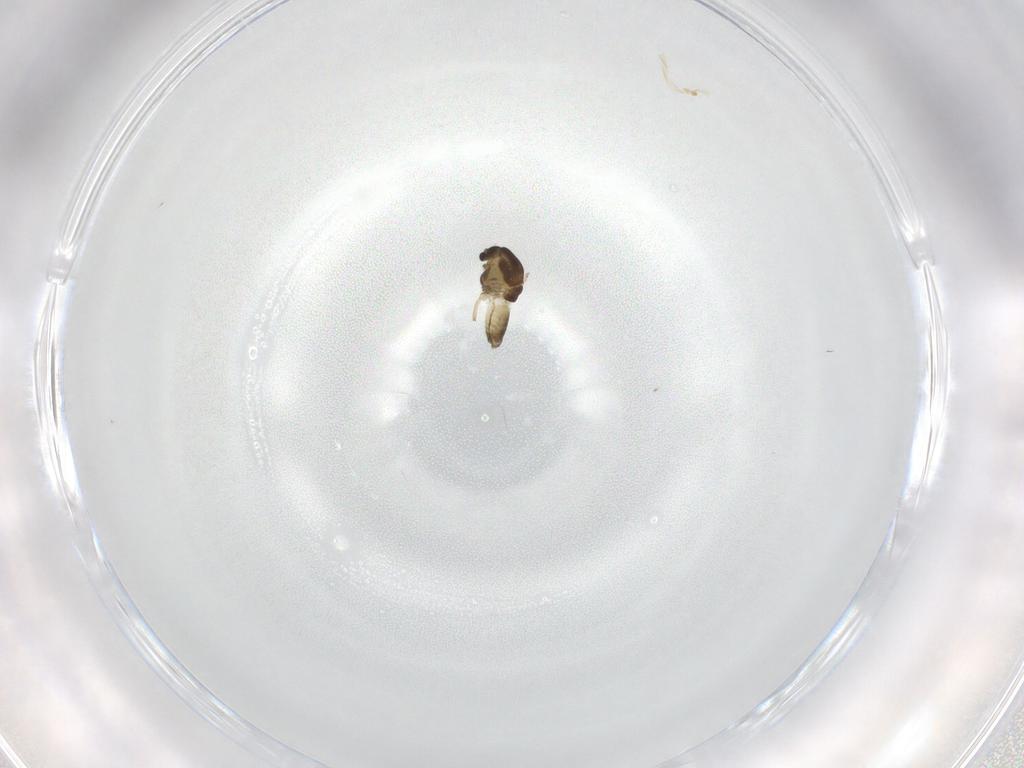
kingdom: Animalia
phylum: Arthropoda
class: Insecta
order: Diptera
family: Chironomidae
